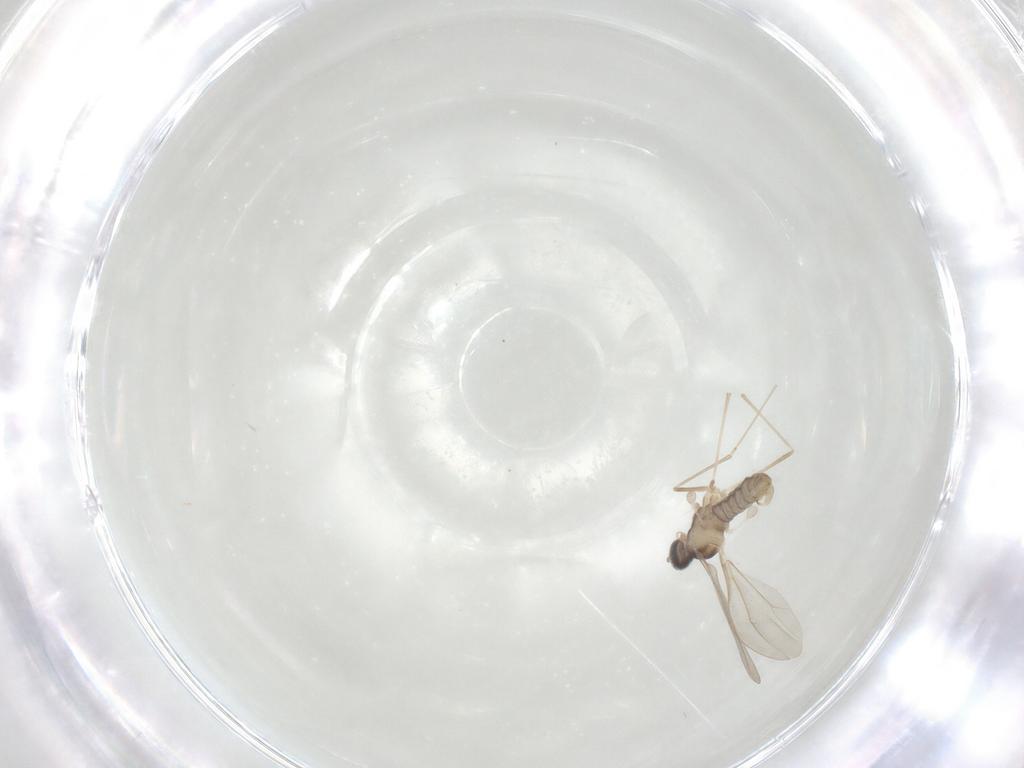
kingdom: Animalia
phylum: Arthropoda
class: Insecta
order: Diptera
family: Cecidomyiidae
